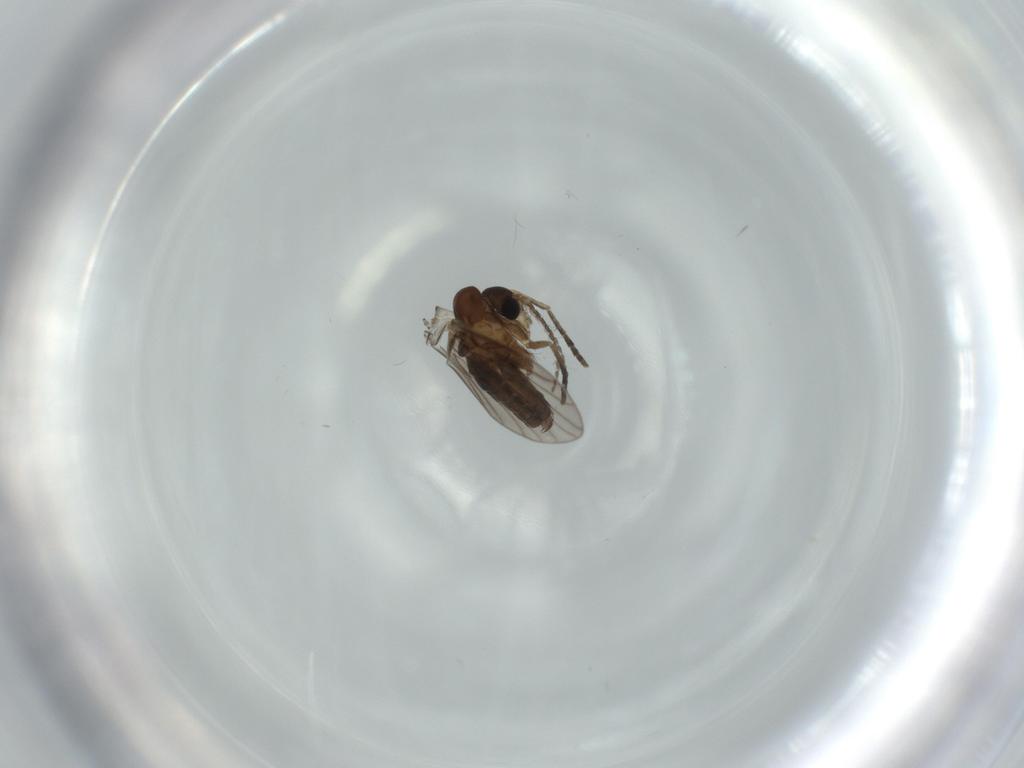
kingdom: Animalia
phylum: Arthropoda
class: Insecta
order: Diptera
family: Psychodidae
